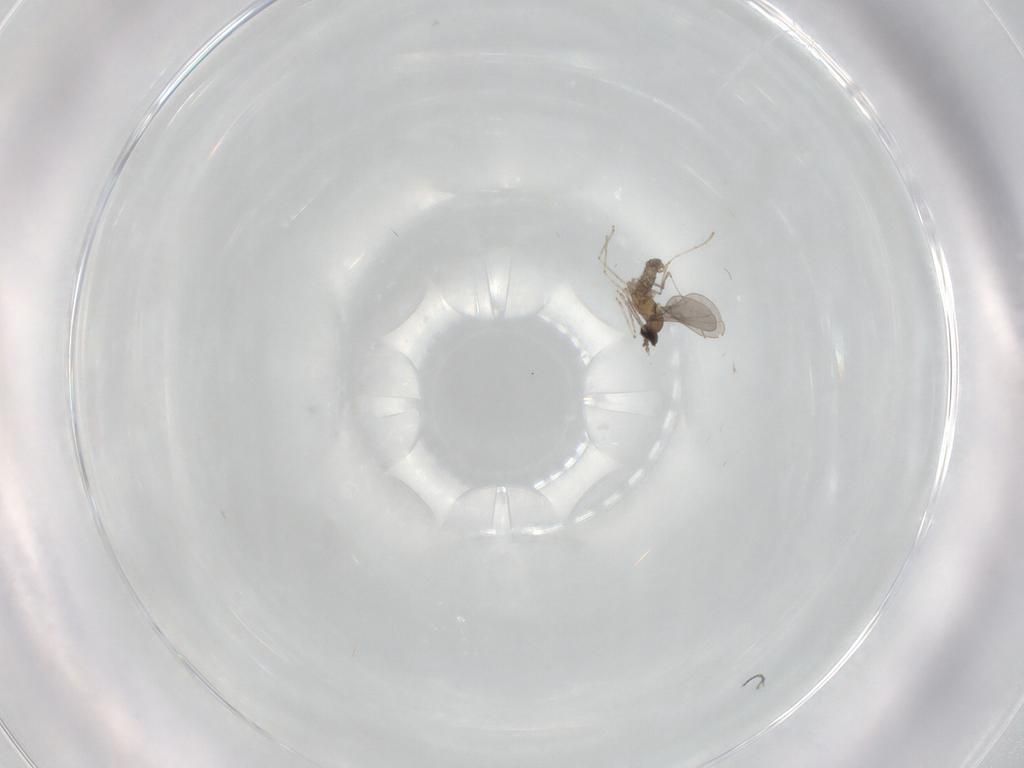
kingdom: Animalia
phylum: Arthropoda
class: Insecta
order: Diptera
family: Cecidomyiidae
